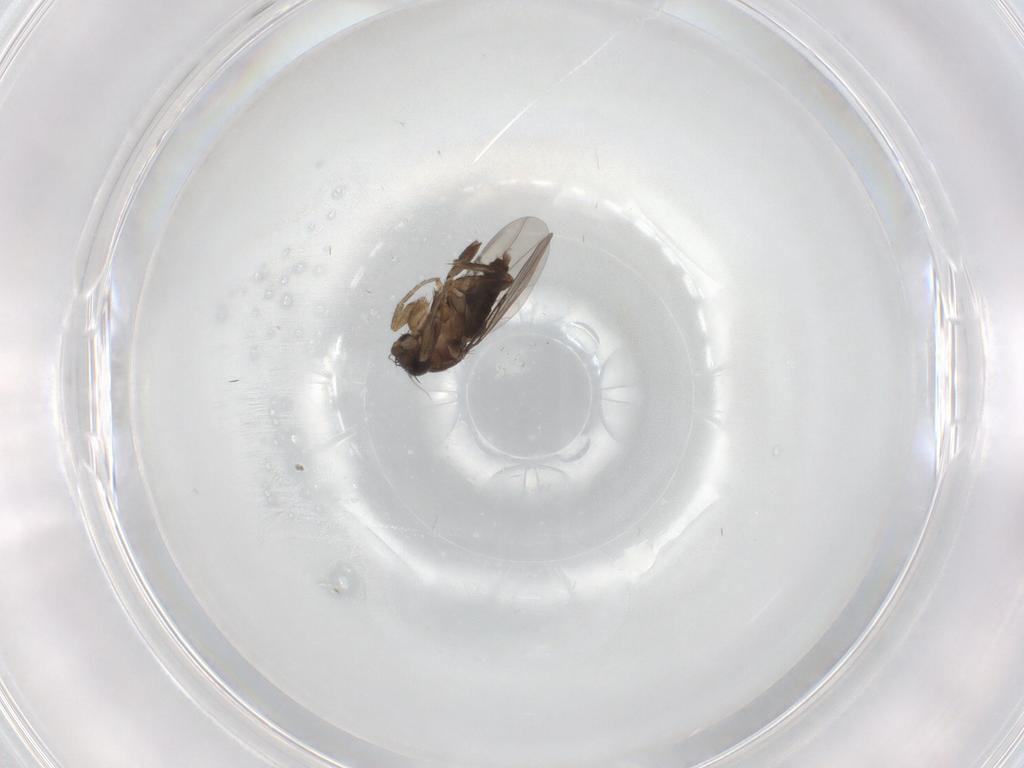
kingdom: Animalia
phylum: Arthropoda
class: Insecta
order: Diptera
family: Phoridae
